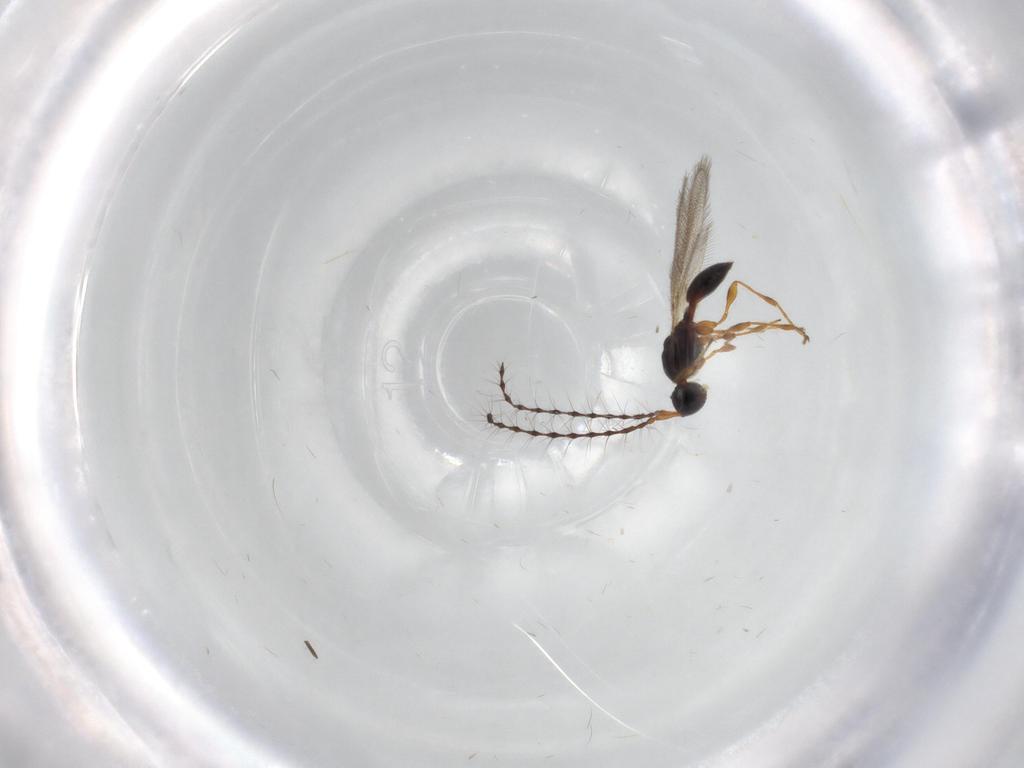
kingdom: Animalia
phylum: Arthropoda
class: Insecta
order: Hymenoptera
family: Diapriidae
